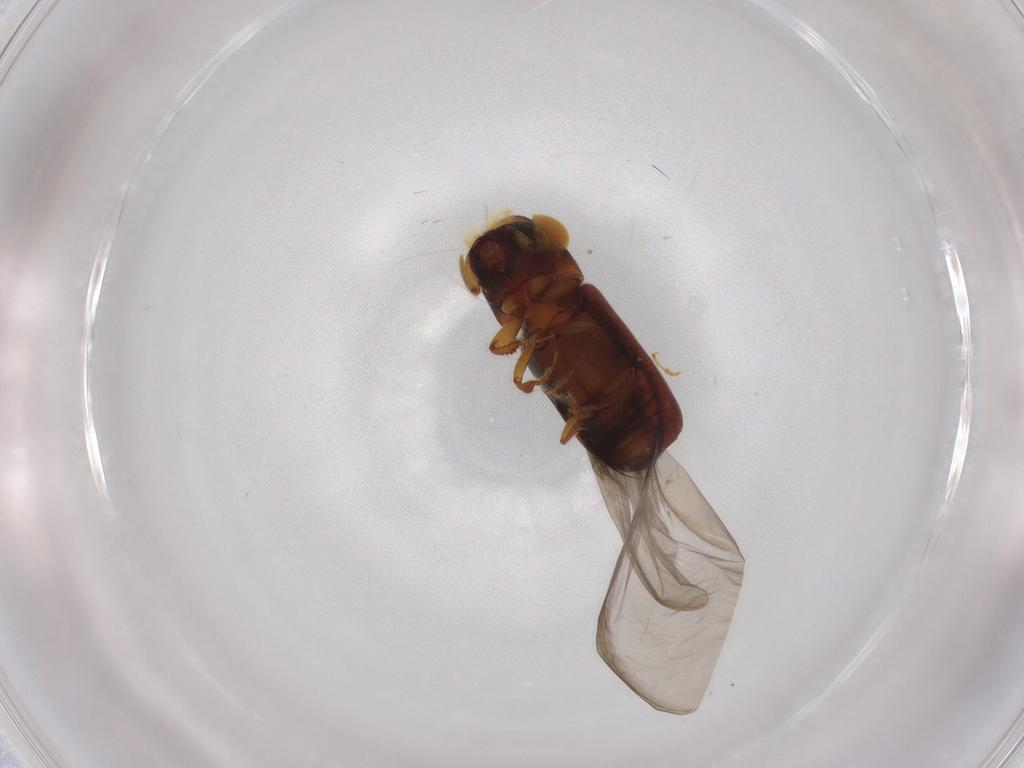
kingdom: Animalia
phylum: Arthropoda
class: Insecta
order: Coleoptera
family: Curculionidae
